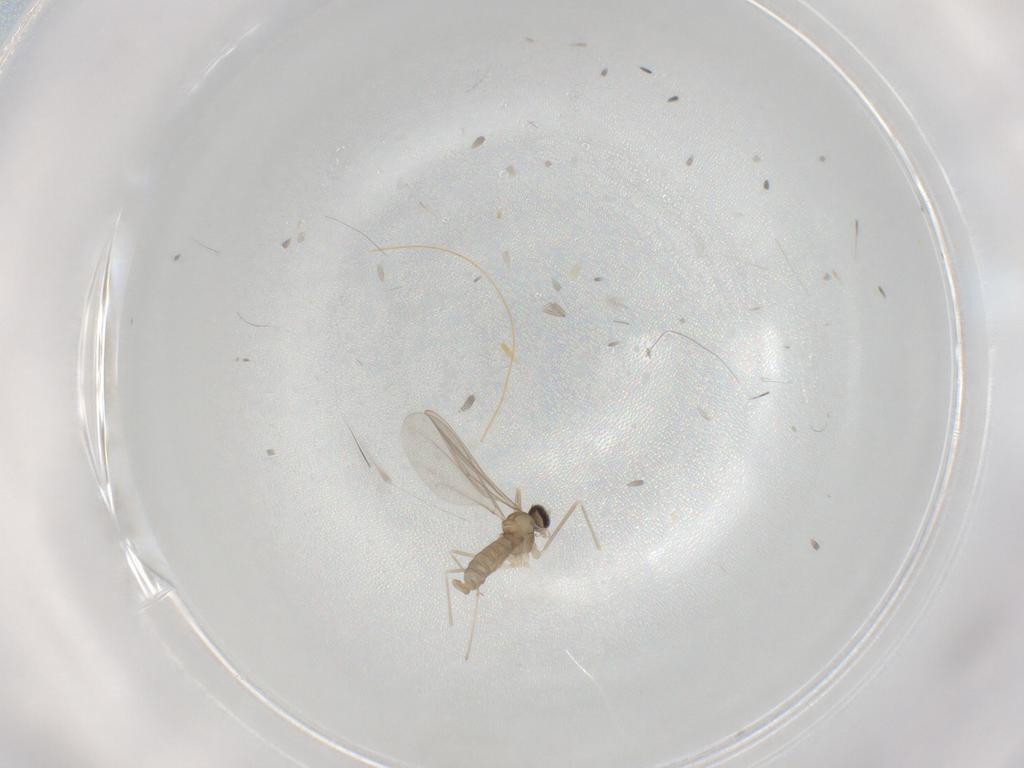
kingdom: Animalia
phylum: Arthropoda
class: Insecta
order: Diptera
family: Cecidomyiidae
